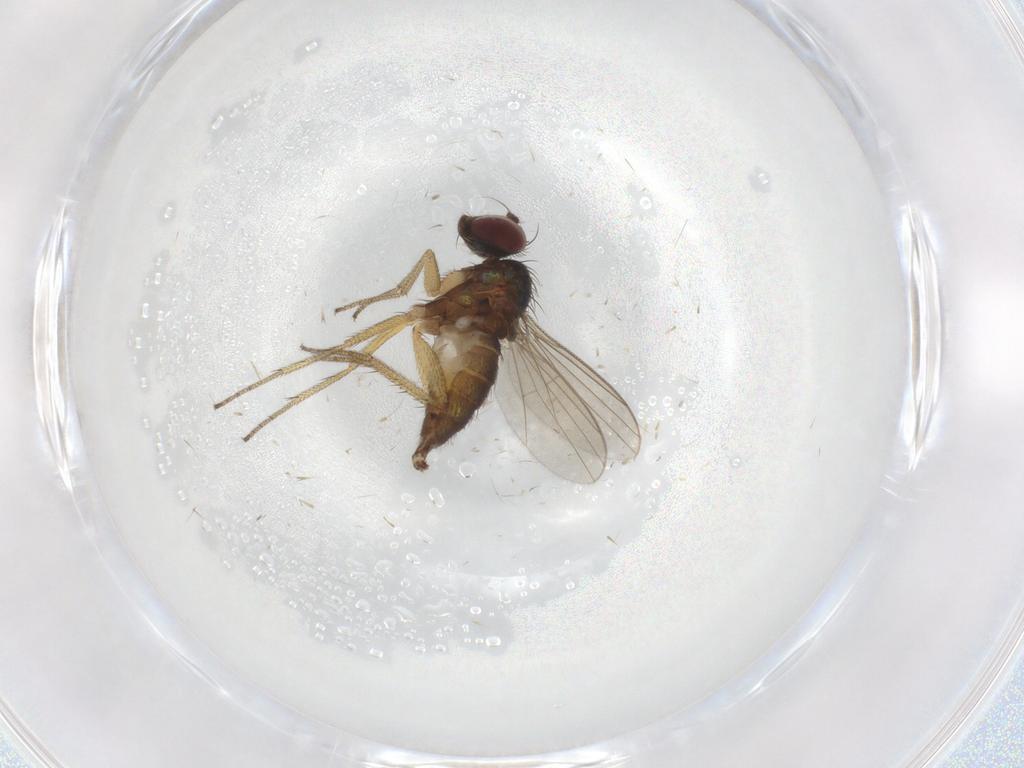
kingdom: Animalia
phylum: Arthropoda
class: Insecta
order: Diptera
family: Dolichopodidae
